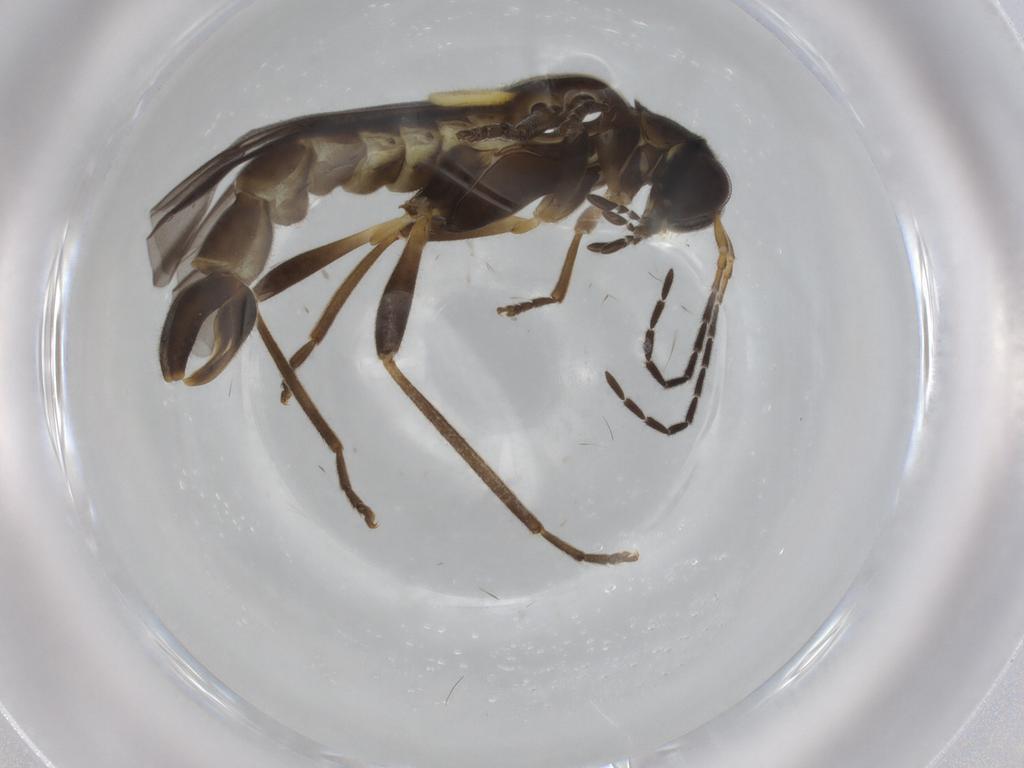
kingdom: Animalia
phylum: Arthropoda
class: Insecta
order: Coleoptera
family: Cantharidae
